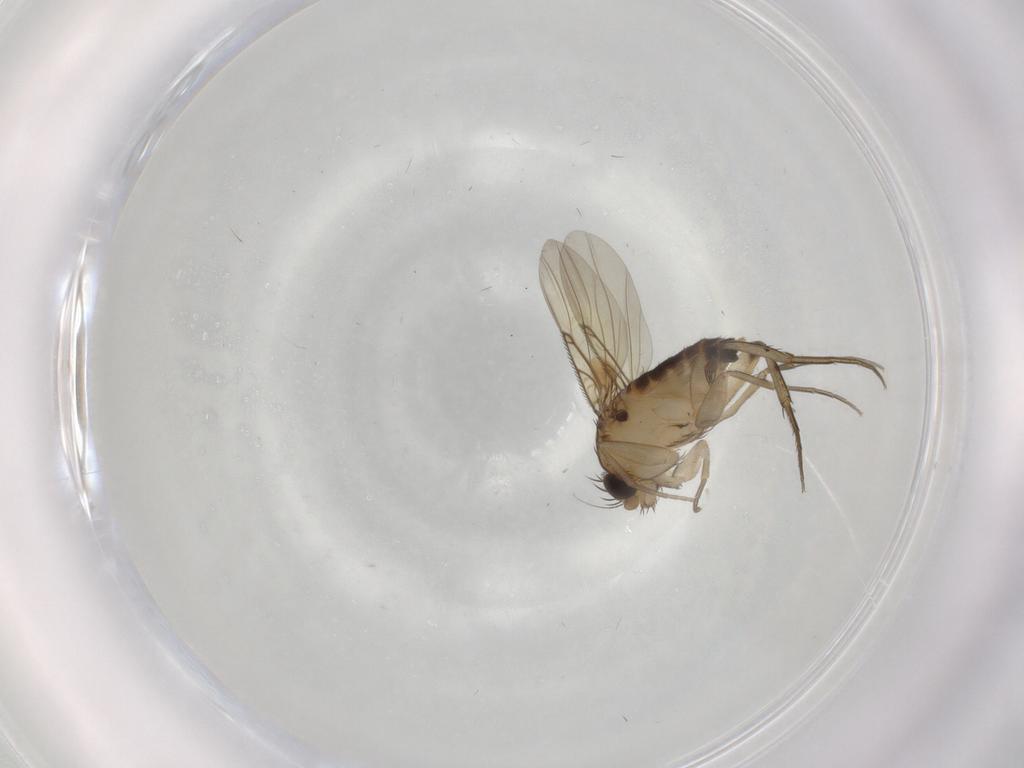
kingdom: Animalia
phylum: Arthropoda
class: Insecta
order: Diptera
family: Phoridae
